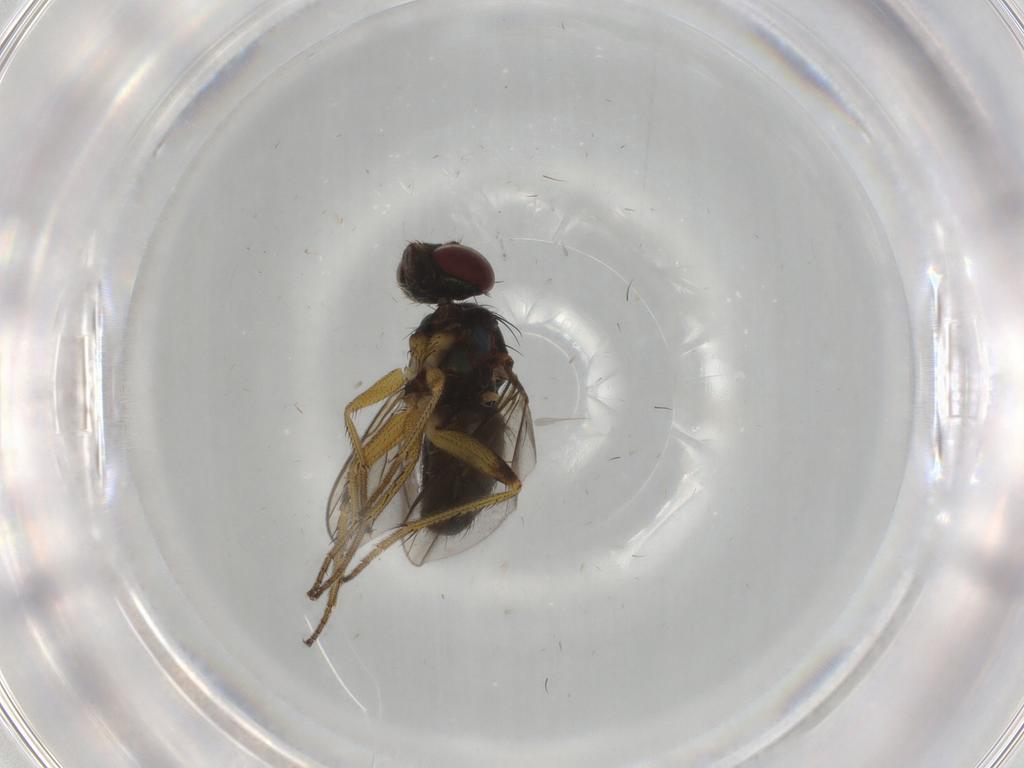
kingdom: Animalia
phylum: Arthropoda
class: Insecta
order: Diptera
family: Dolichopodidae
